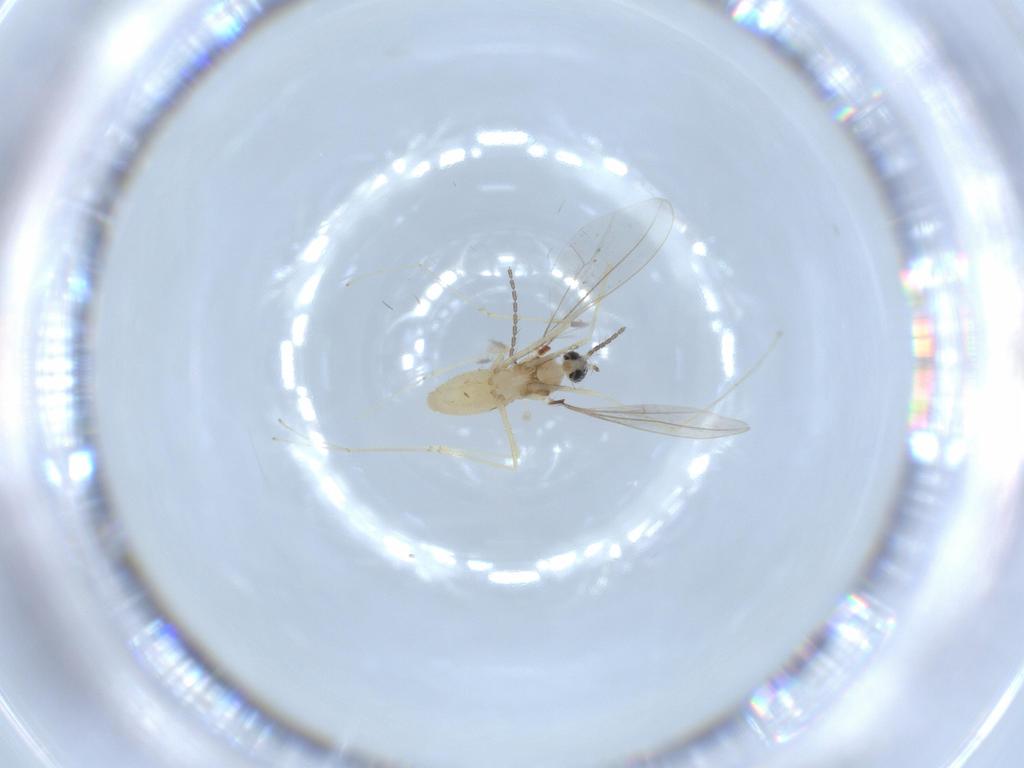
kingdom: Animalia
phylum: Arthropoda
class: Insecta
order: Diptera
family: Cecidomyiidae
